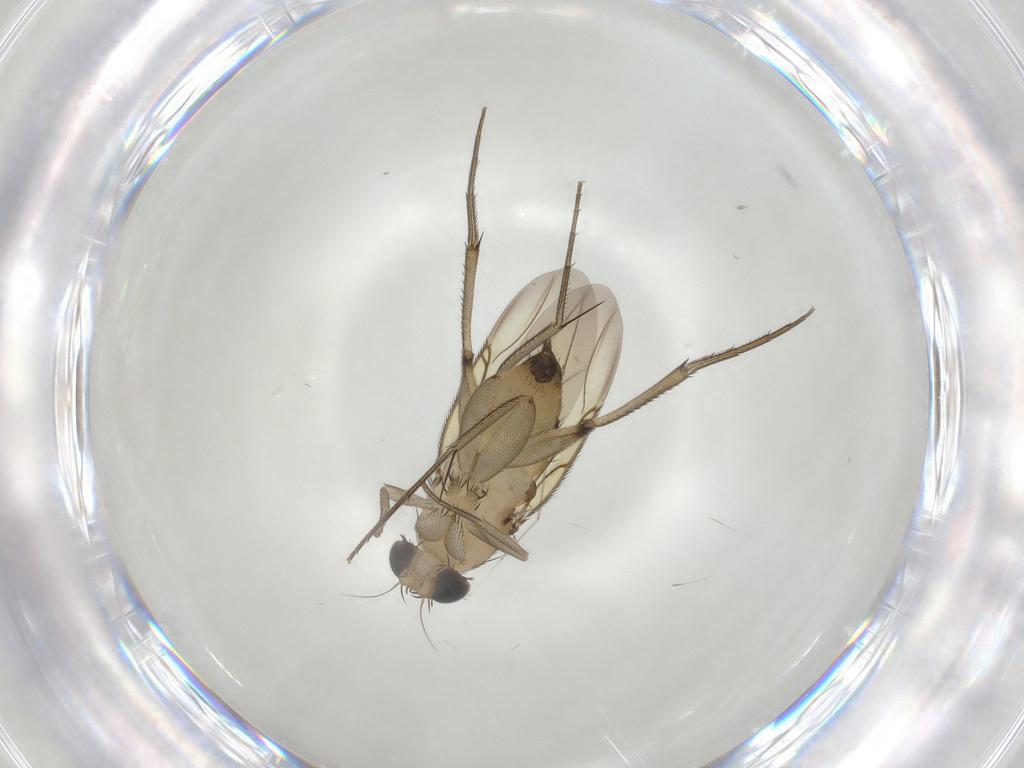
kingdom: Animalia
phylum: Arthropoda
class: Insecta
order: Diptera
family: Phoridae
